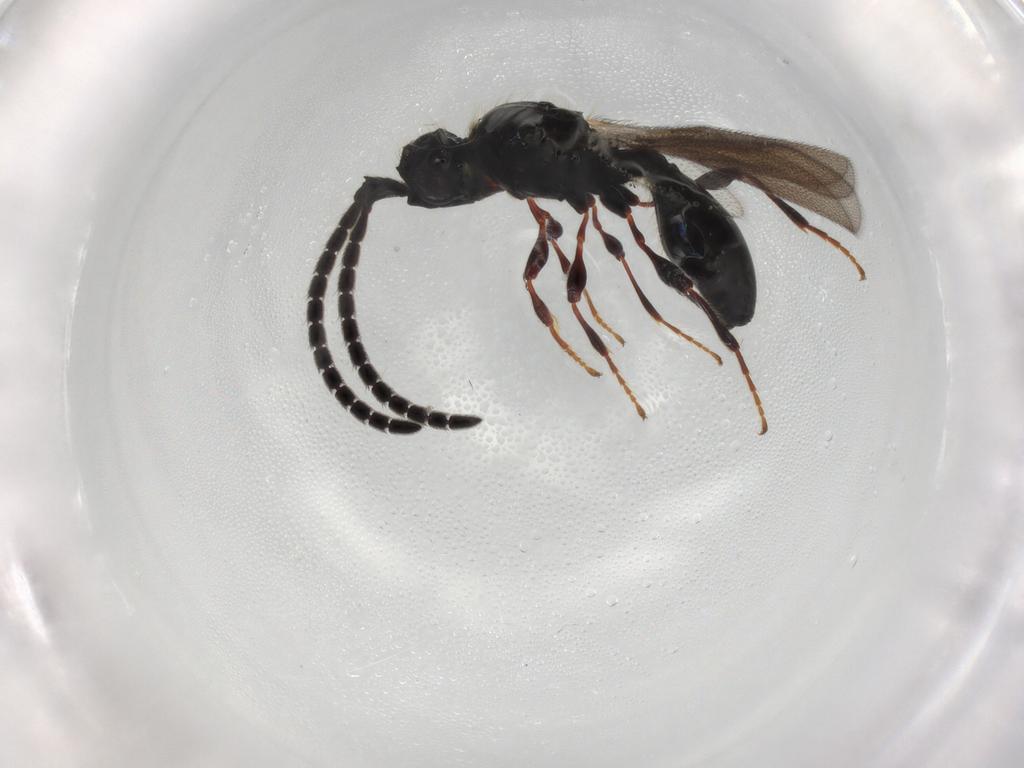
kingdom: Animalia
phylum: Arthropoda
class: Insecta
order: Hymenoptera
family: Diapriidae
